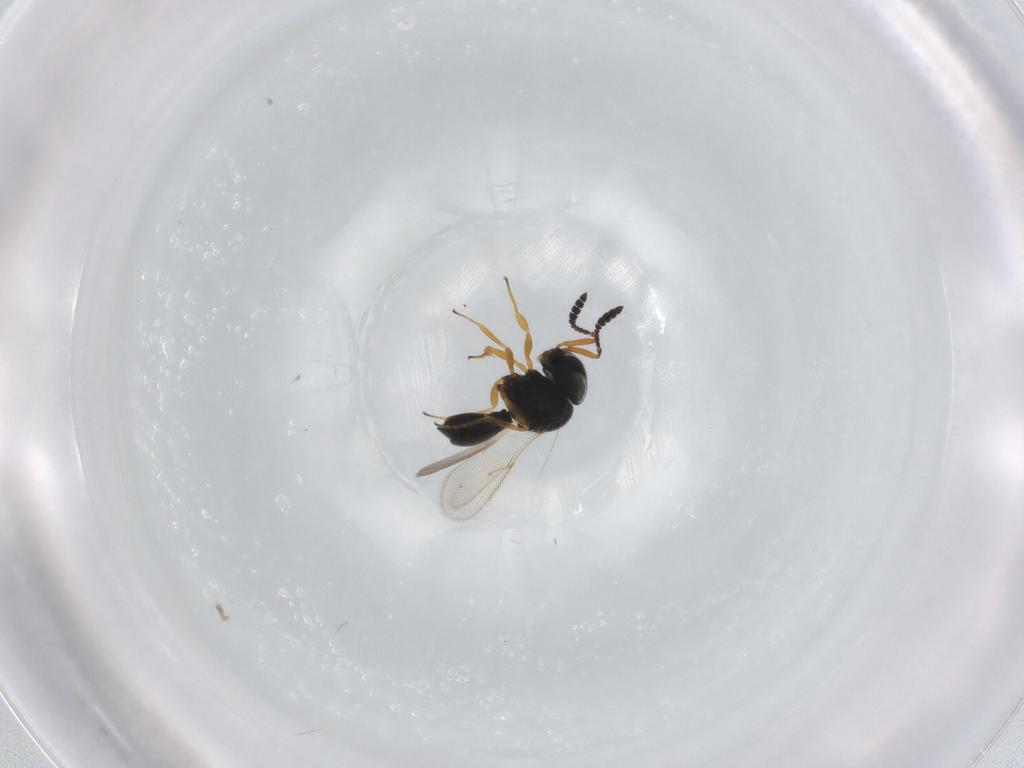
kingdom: Animalia
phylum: Arthropoda
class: Insecta
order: Hymenoptera
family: Scelionidae
